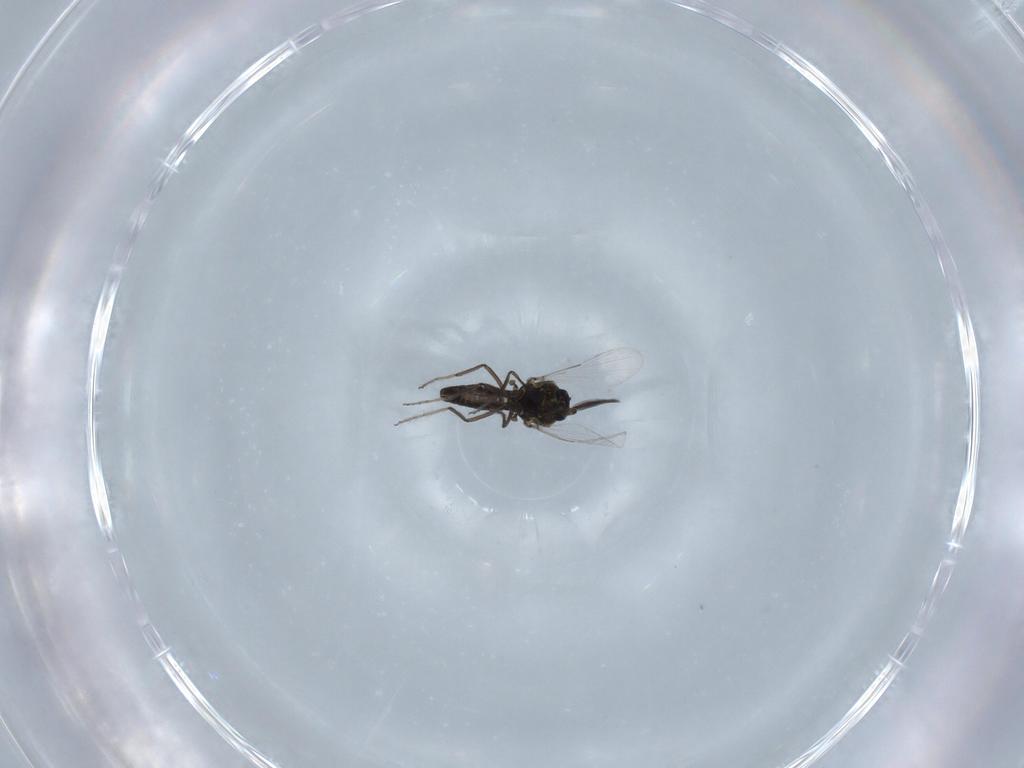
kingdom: Animalia
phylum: Arthropoda
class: Insecta
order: Diptera
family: Ceratopogonidae
